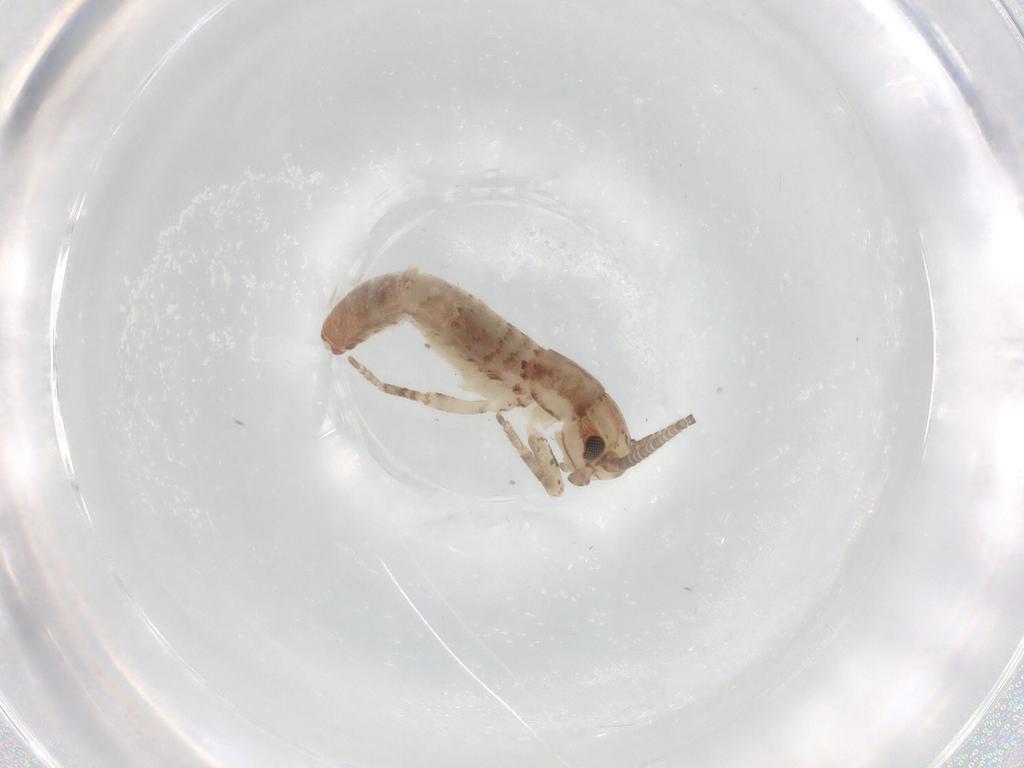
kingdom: Animalia
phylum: Arthropoda
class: Insecta
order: Orthoptera
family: Mogoplistidae
